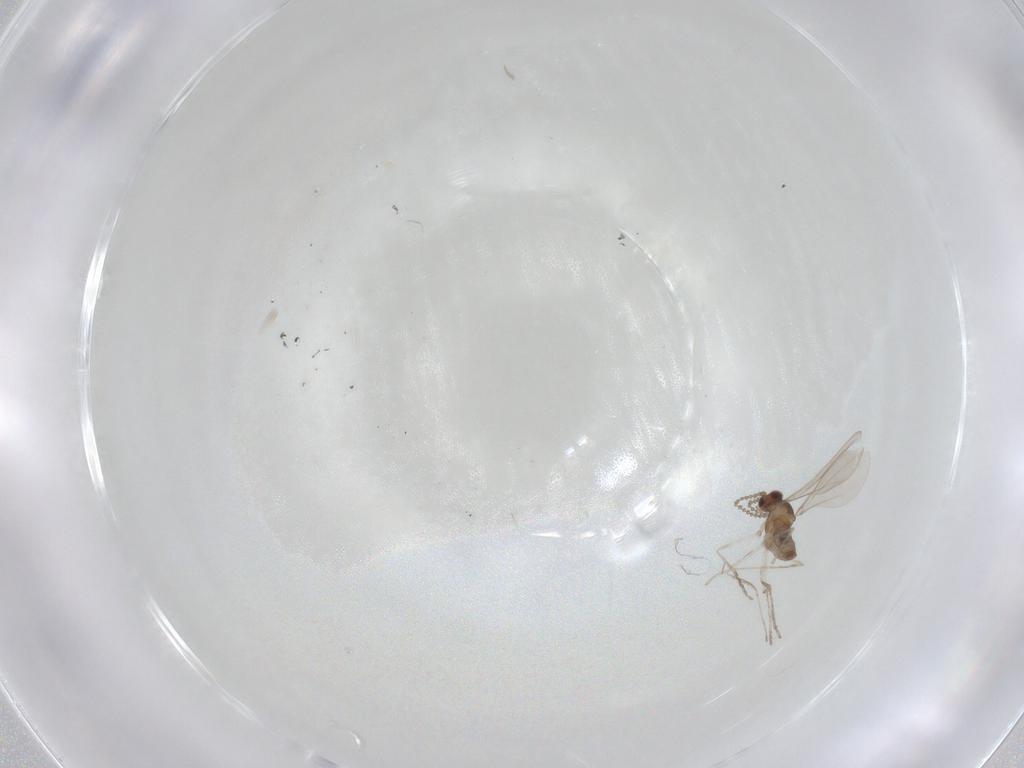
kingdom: Animalia
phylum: Arthropoda
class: Insecta
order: Diptera
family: Cecidomyiidae
